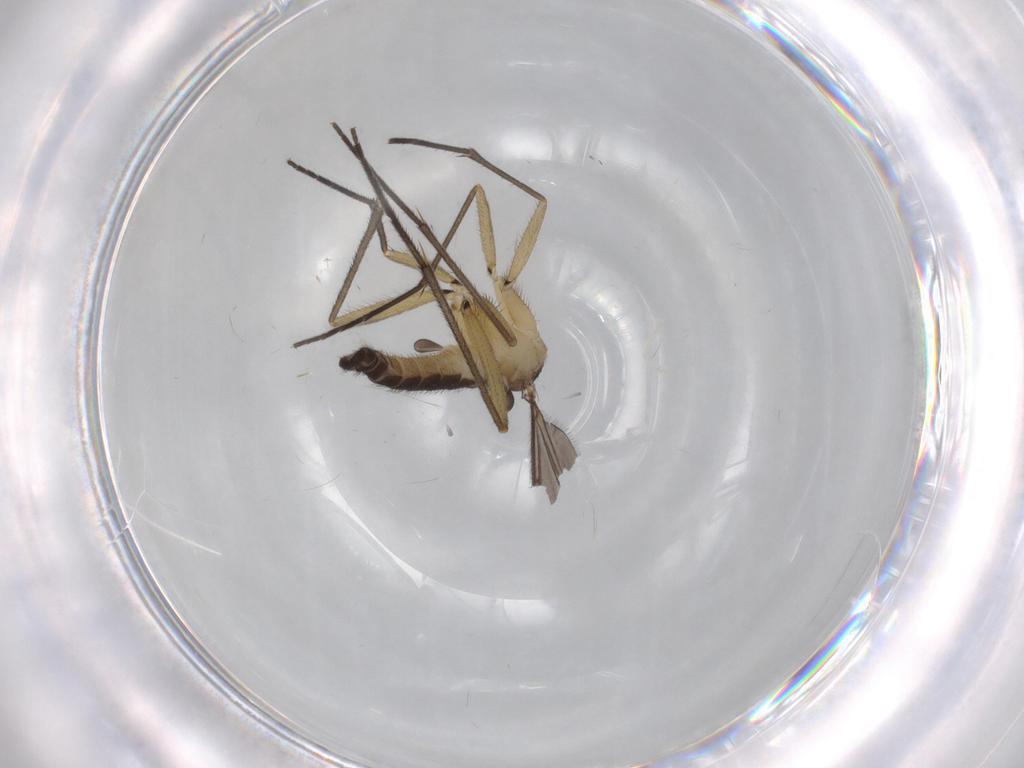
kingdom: Animalia
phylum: Arthropoda
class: Insecta
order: Diptera
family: Sciaridae
